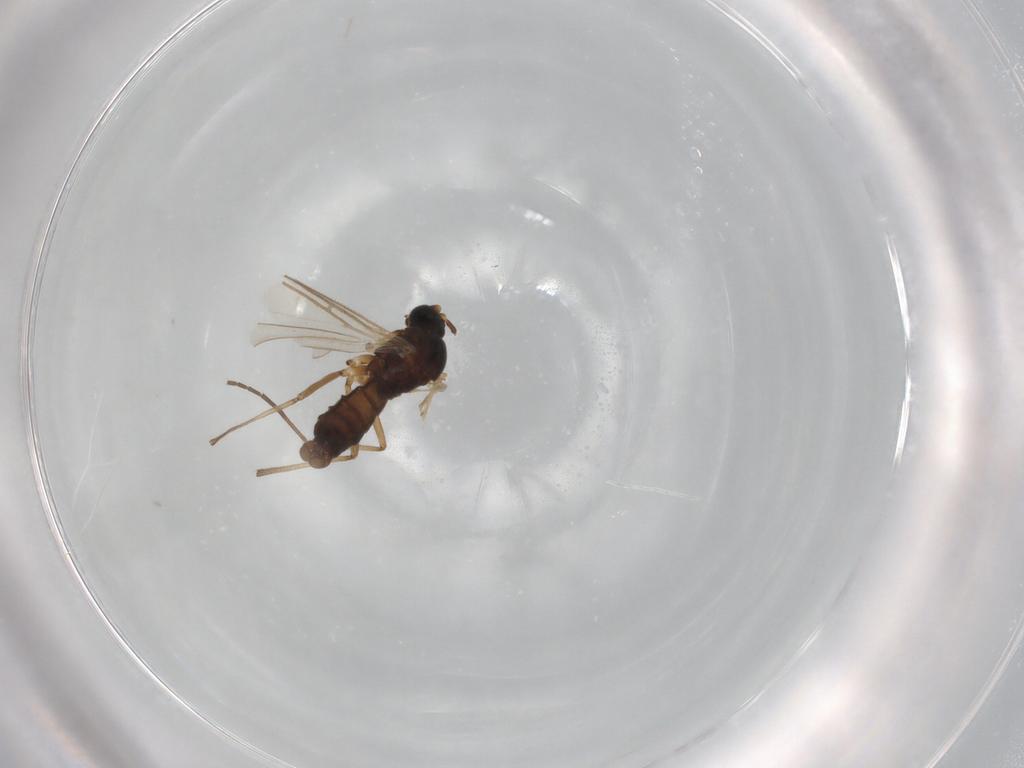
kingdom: Animalia
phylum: Arthropoda
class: Insecta
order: Diptera
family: Sciaridae
